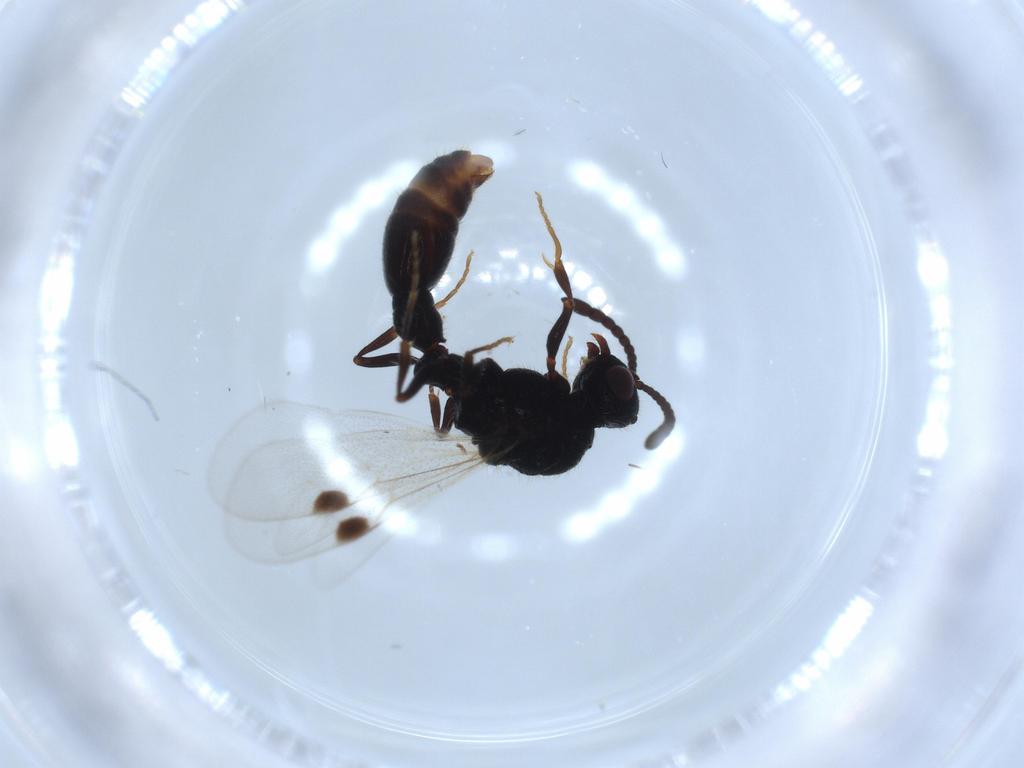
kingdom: Animalia
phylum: Arthropoda
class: Insecta
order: Hymenoptera
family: Formicidae
